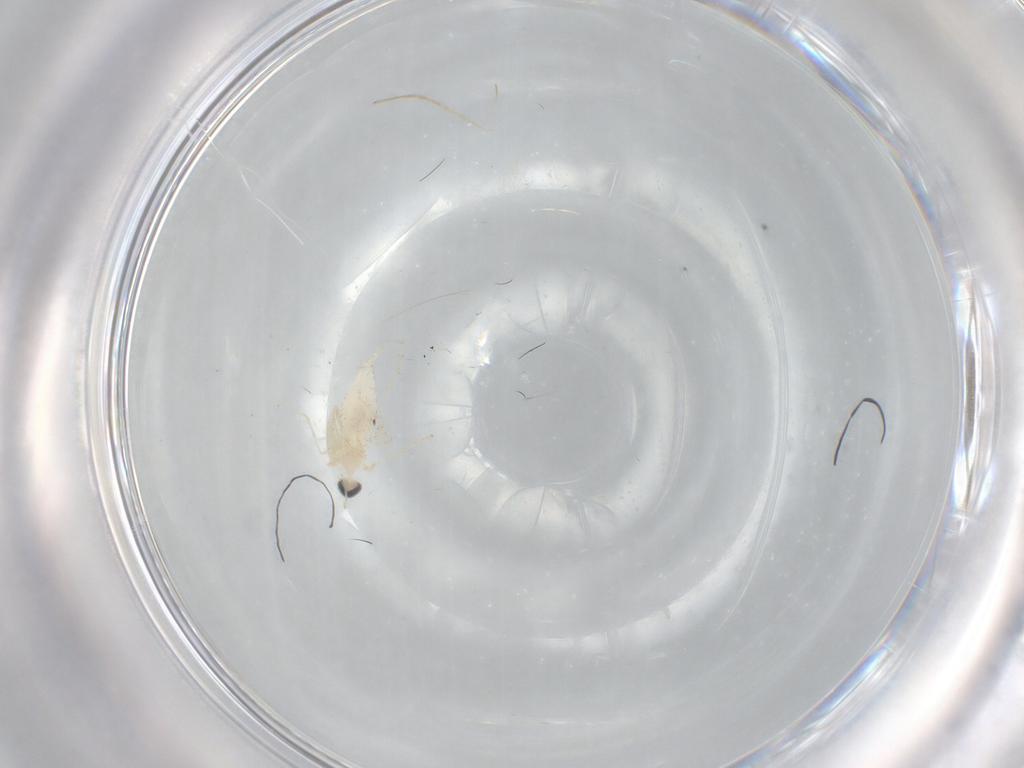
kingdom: Animalia
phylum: Arthropoda
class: Insecta
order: Diptera
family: Cecidomyiidae
